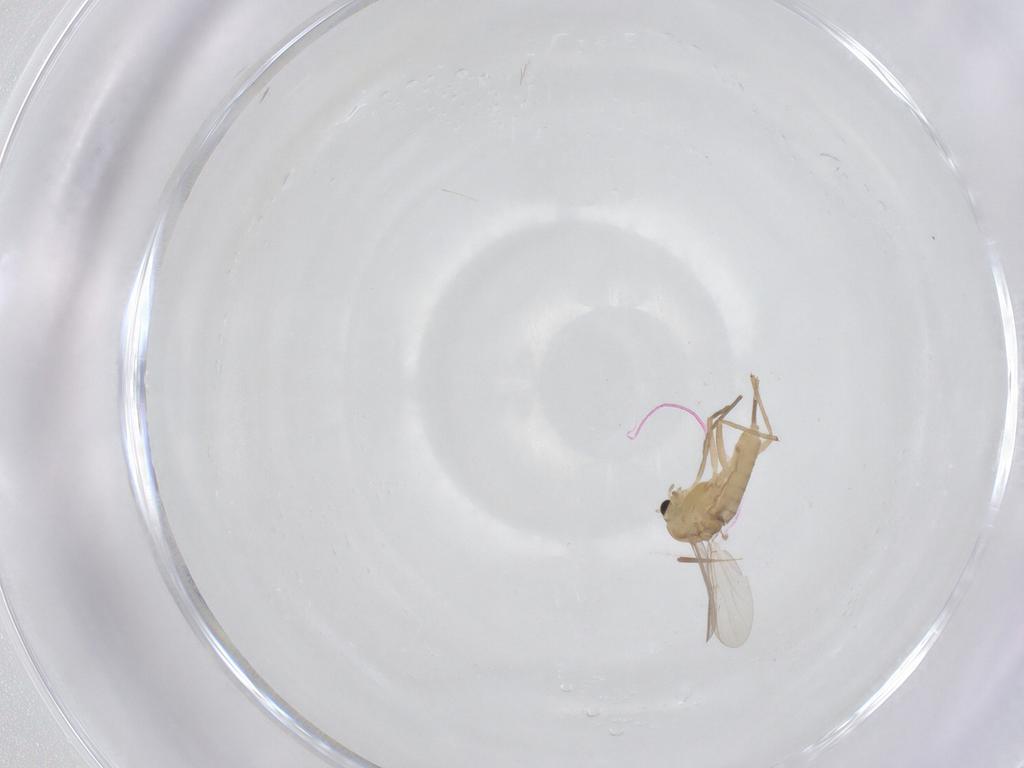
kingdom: Animalia
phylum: Arthropoda
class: Insecta
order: Diptera
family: Chironomidae
